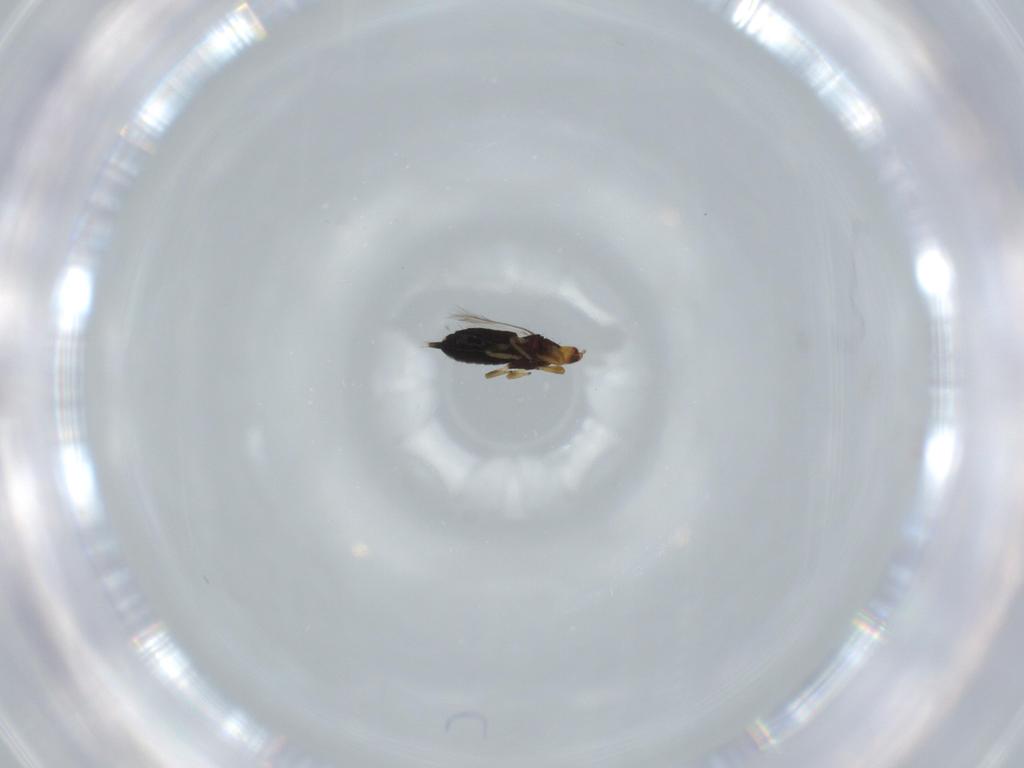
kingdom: Animalia
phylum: Arthropoda
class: Insecta
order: Thysanoptera
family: Phlaeothripidae
